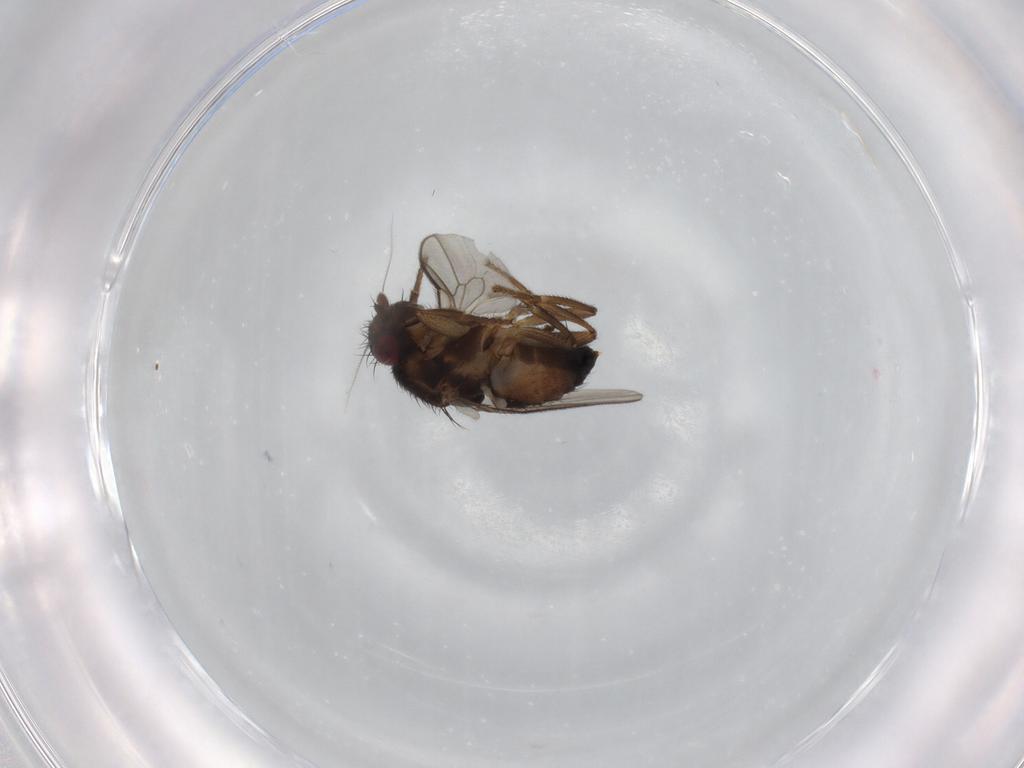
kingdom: Animalia
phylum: Arthropoda
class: Insecta
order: Diptera
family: Sphaeroceridae
